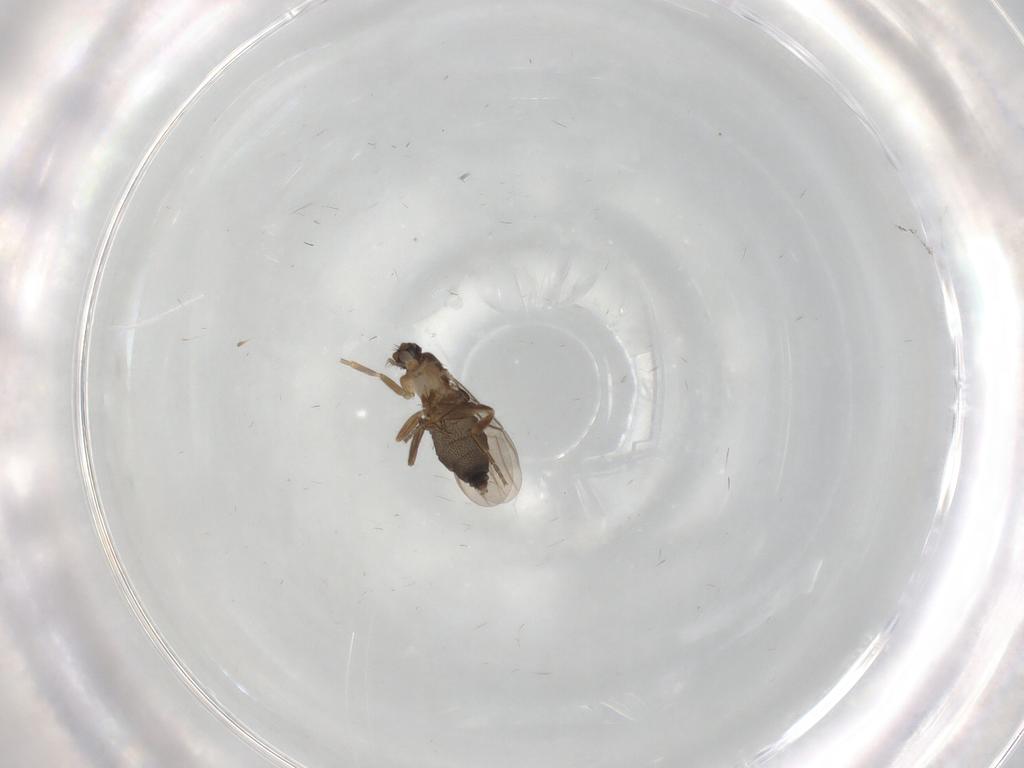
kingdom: Animalia
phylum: Arthropoda
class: Insecta
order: Diptera
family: Phoridae
